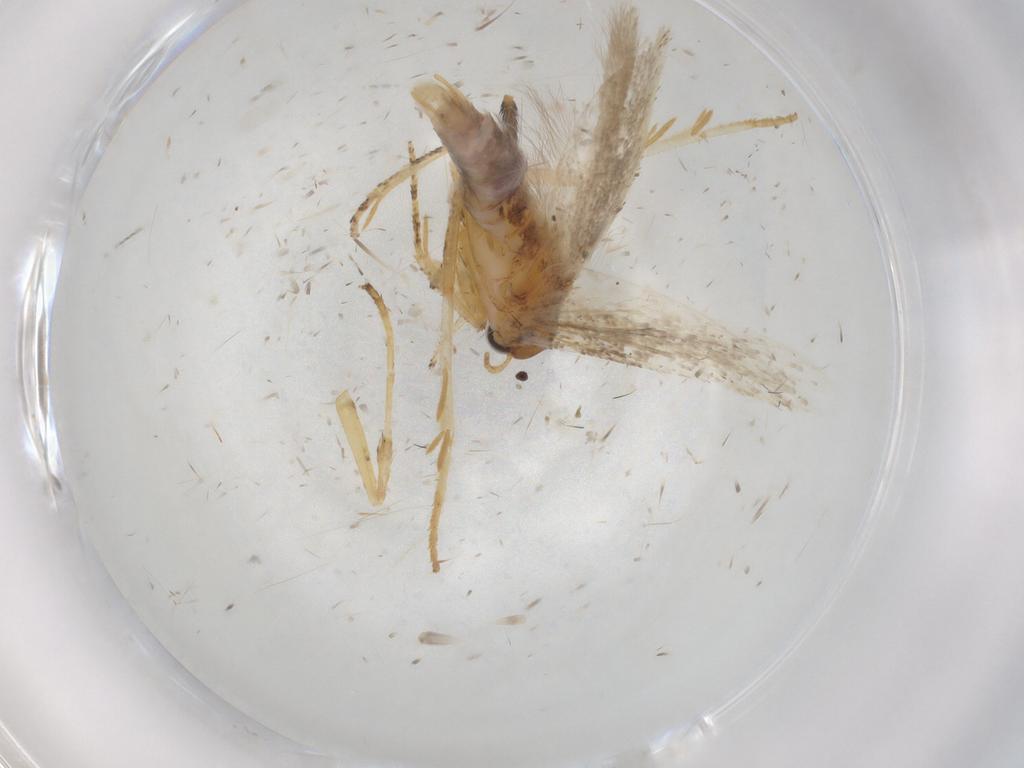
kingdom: Animalia
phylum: Arthropoda
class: Insecta
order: Lepidoptera
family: Gelechiidae
